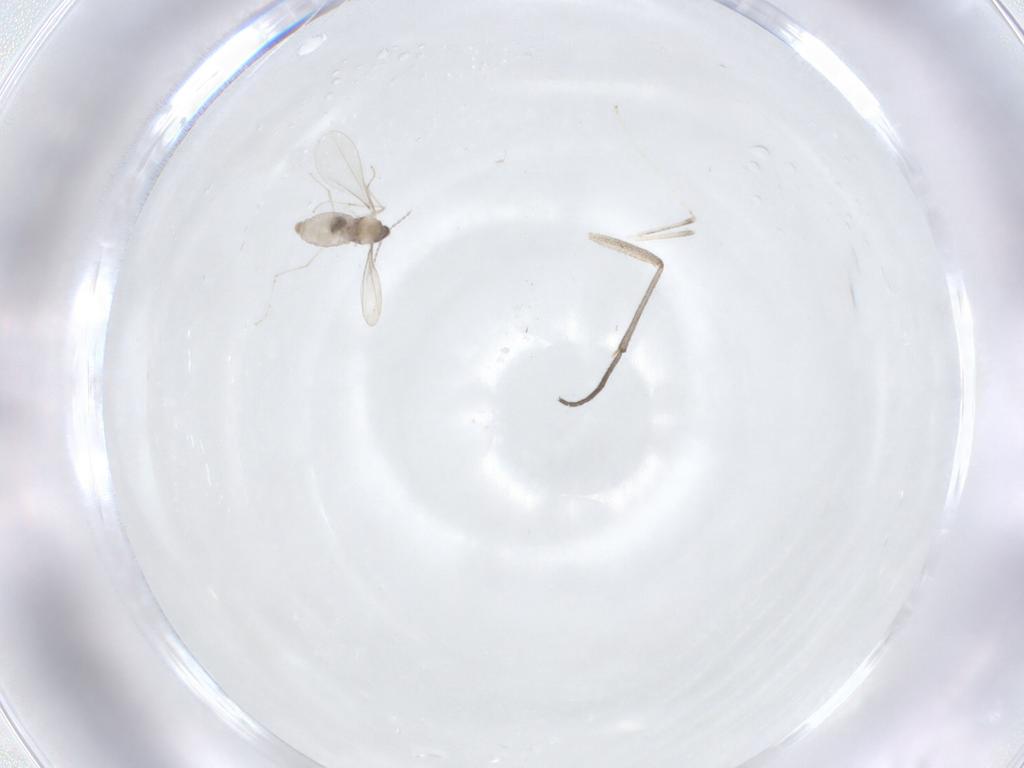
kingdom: Animalia
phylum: Arthropoda
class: Insecta
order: Diptera
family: Cecidomyiidae
